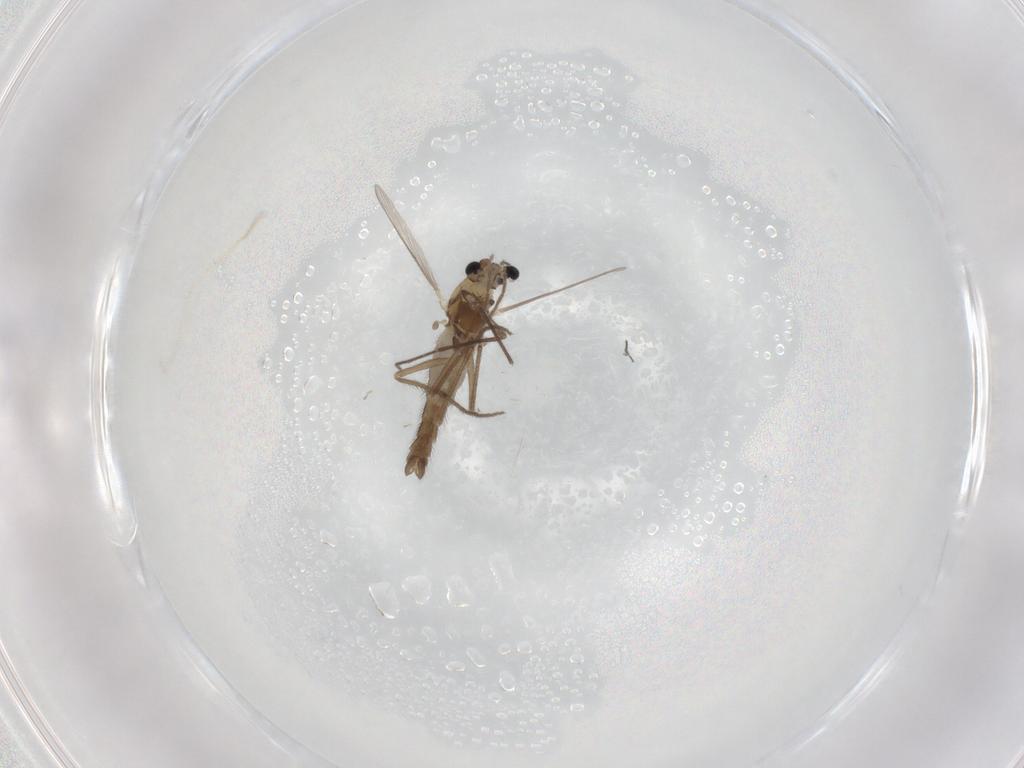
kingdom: Animalia
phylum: Arthropoda
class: Insecta
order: Diptera
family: Chironomidae
